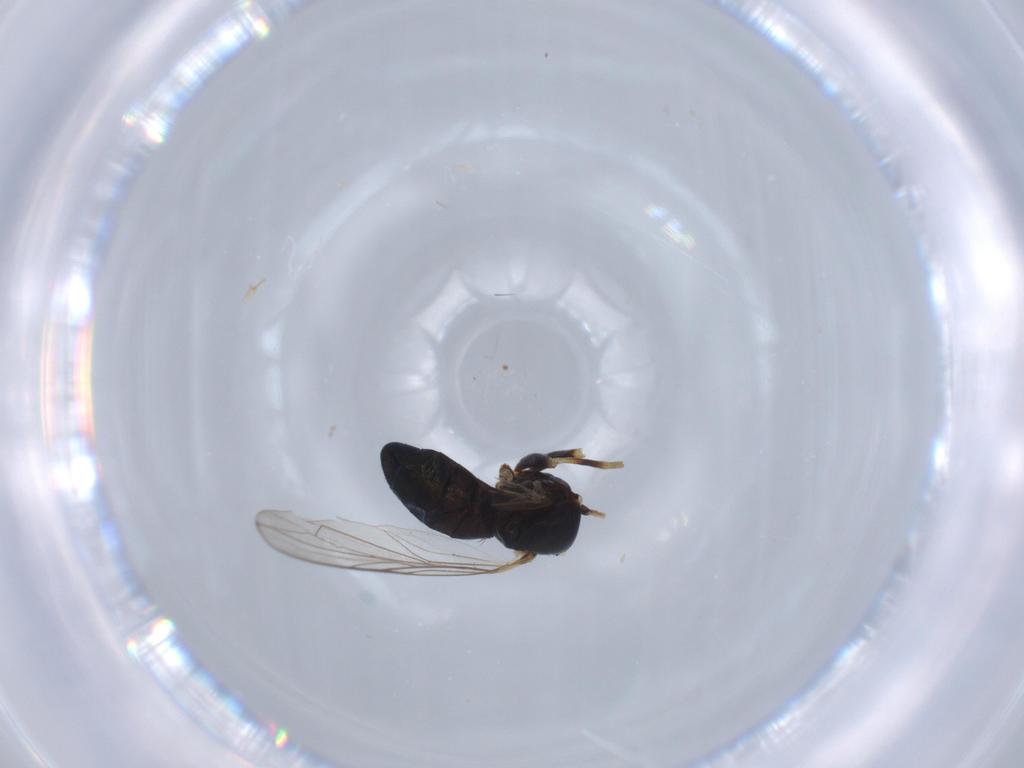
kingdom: Animalia
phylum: Arthropoda
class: Insecta
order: Diptera
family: Pipunculidae
